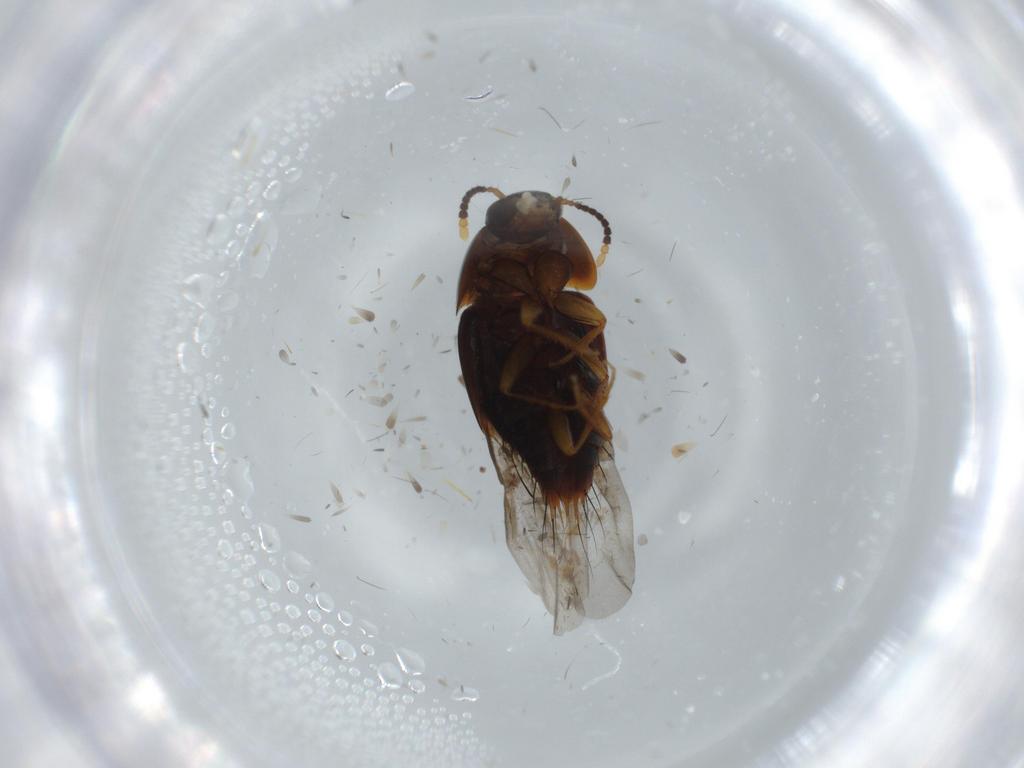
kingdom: Animalia
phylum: Arthropoda
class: Insecta
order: Coleoptera
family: Staphylinidae
